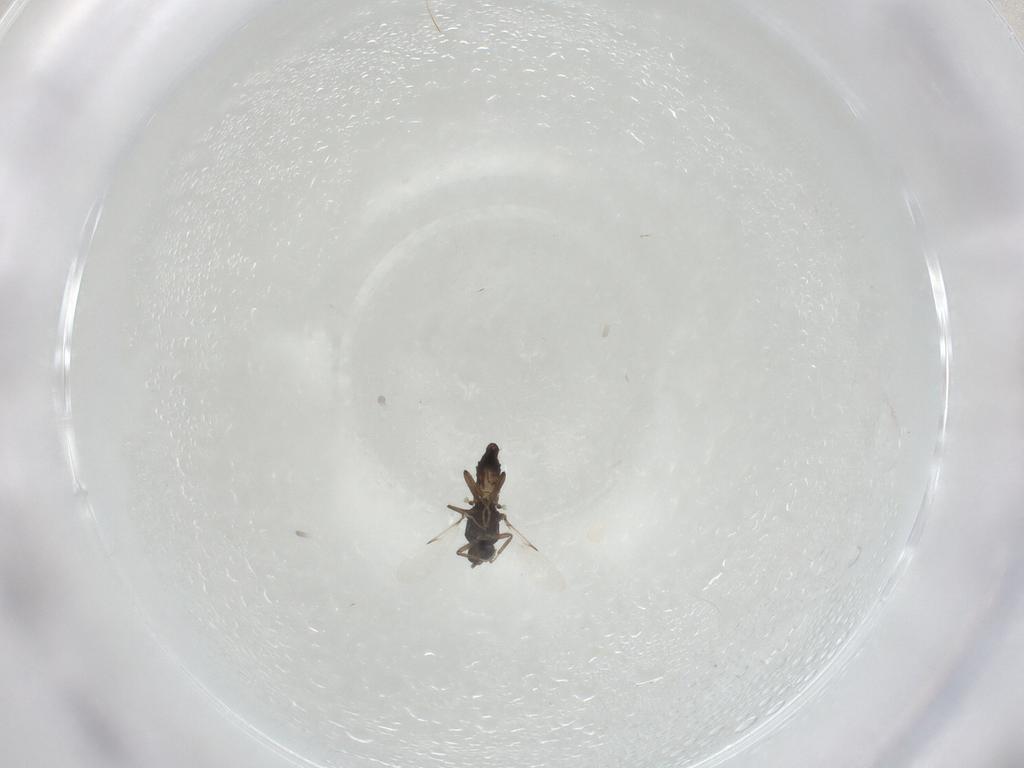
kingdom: Animalia
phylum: Arthropoda
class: Insecta
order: Diptera
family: Ceratopogonidae
